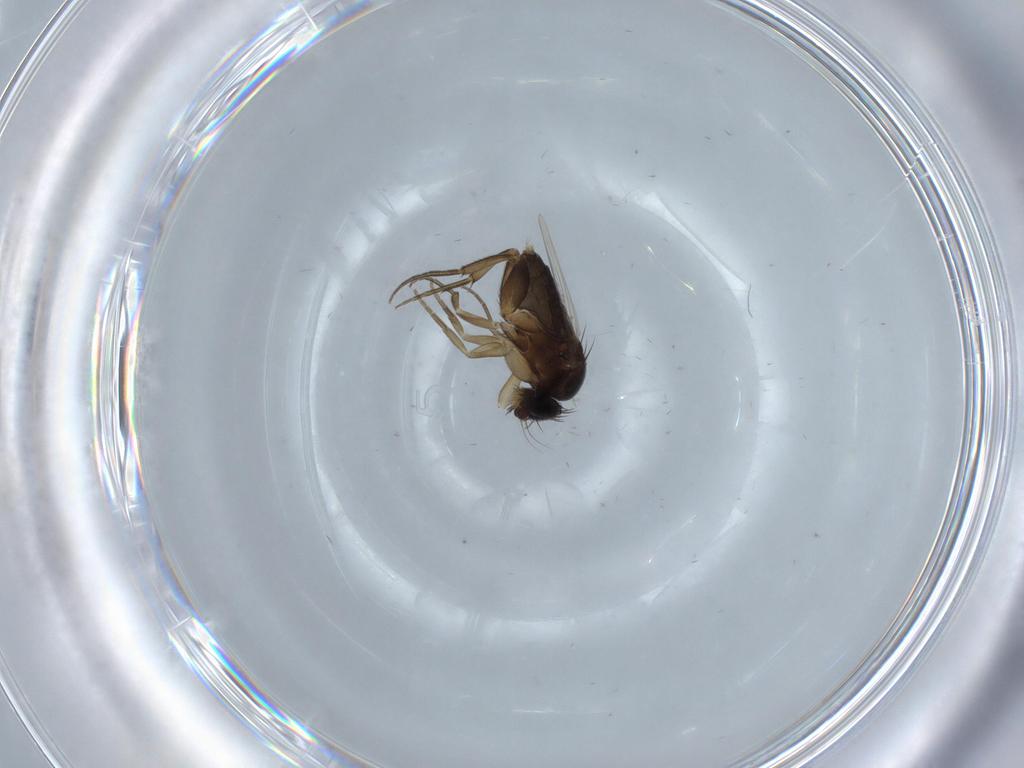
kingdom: Animalia
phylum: Arthropoda
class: Insecta
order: Diptera
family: Phoridae
